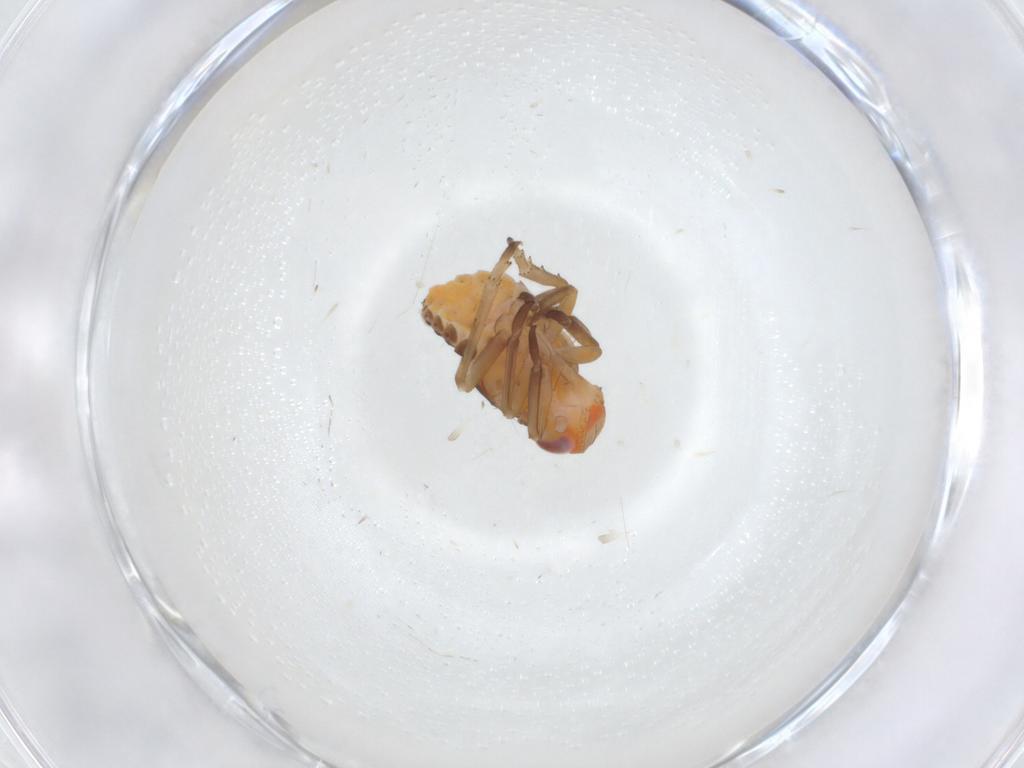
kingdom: Animalia
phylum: Arthropoda
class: Insecta
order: Hemiptera
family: Fulgoroidea_incertae_sedis
